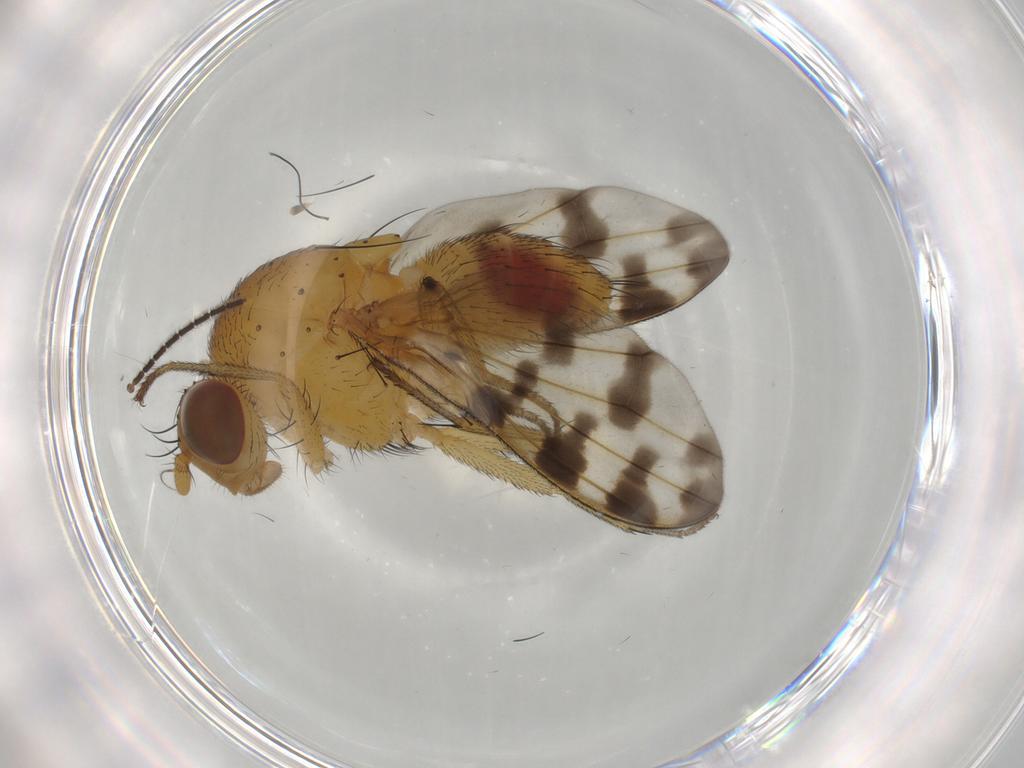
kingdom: Animalia
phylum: Arthropoda
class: Insecta
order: Diptera
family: Sciaridae
